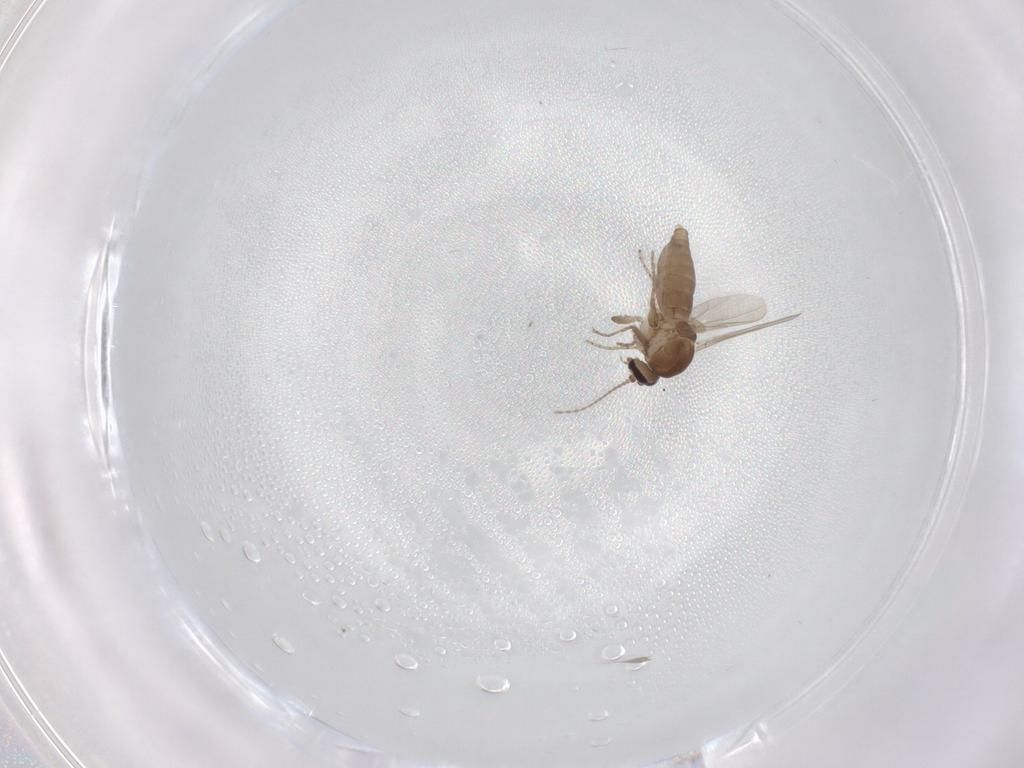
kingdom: Animalia
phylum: Arthropoda
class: Insecta
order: Diptera
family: Ceratopogonidae
